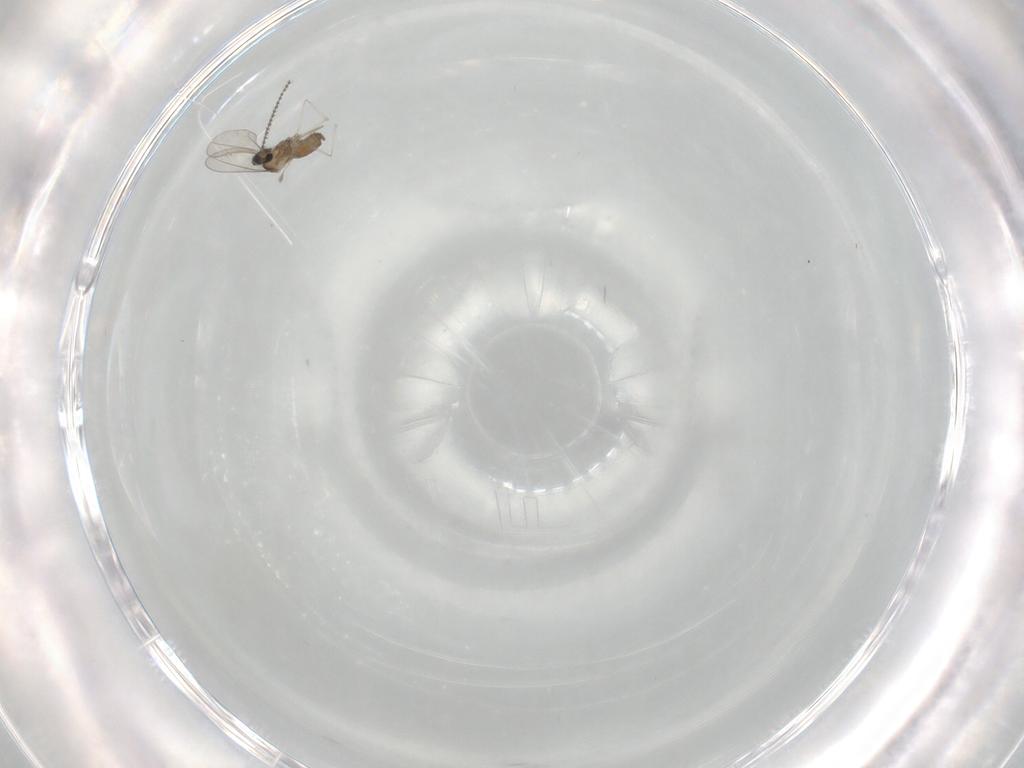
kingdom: Animalia
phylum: Arthropoda
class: Insecta
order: Diptera
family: Cecidomyiidae
